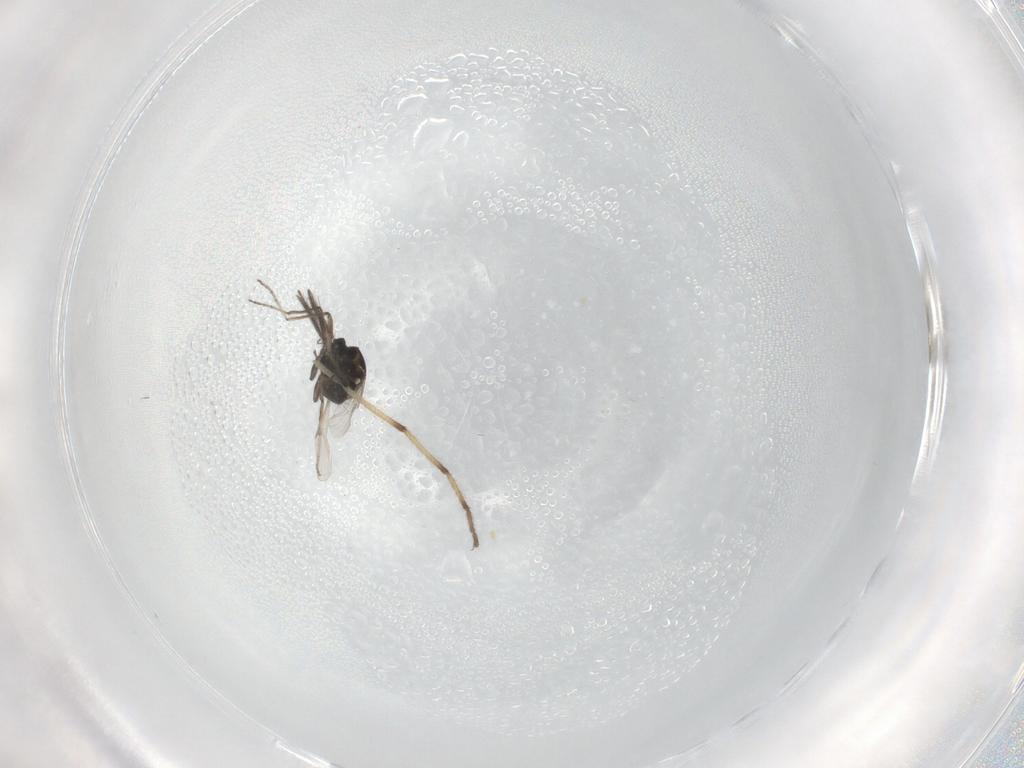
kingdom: Animalia
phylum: Arthropoda
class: Insecta
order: Diptera
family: Ceratopogonidae
